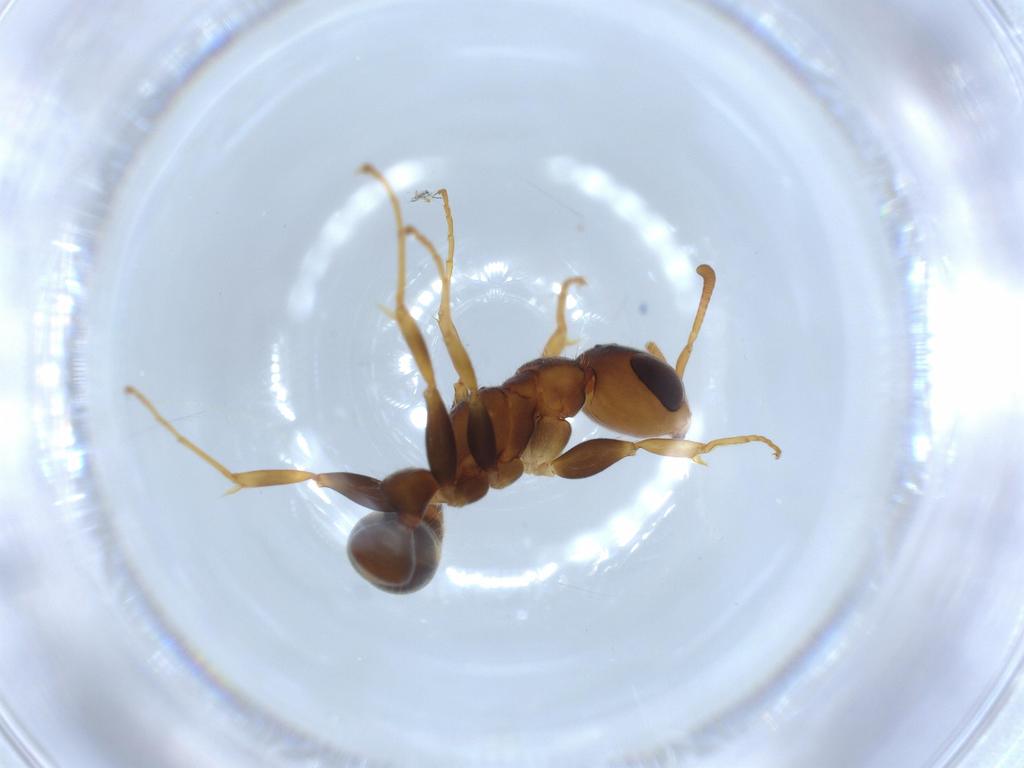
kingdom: Animalia
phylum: Arthropoda
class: Insecta
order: Hymenoptera
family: Formicidae
